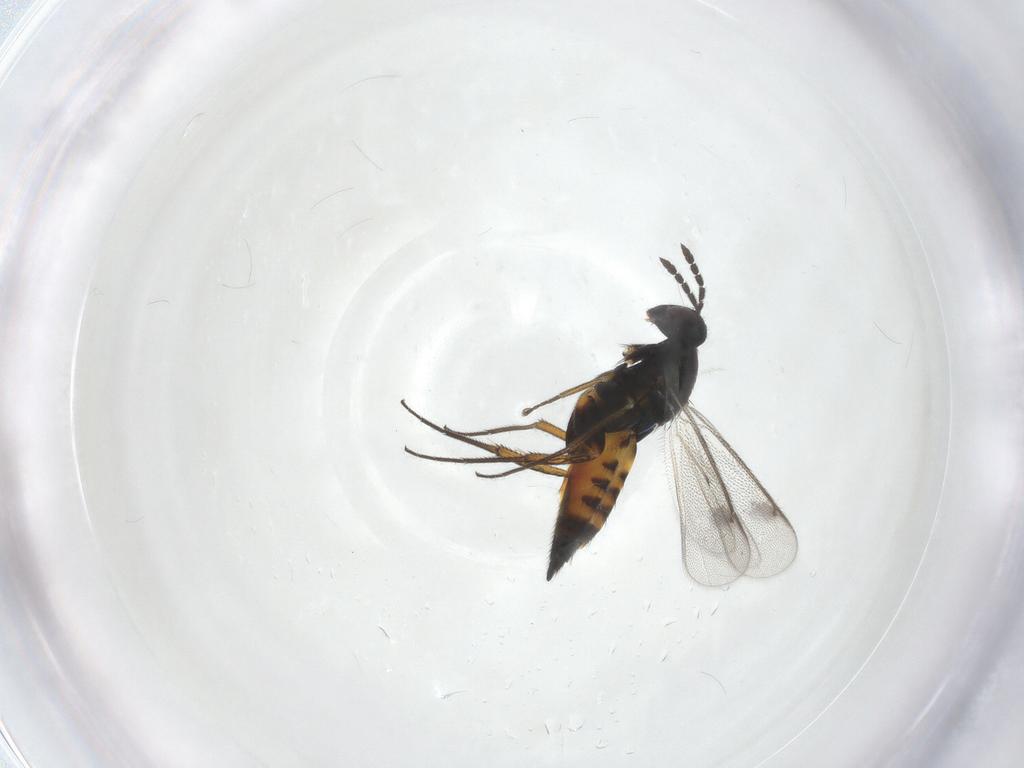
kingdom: Animalia
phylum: Arthropoda
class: Insecta
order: Hymenoptera
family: Eulophidae
